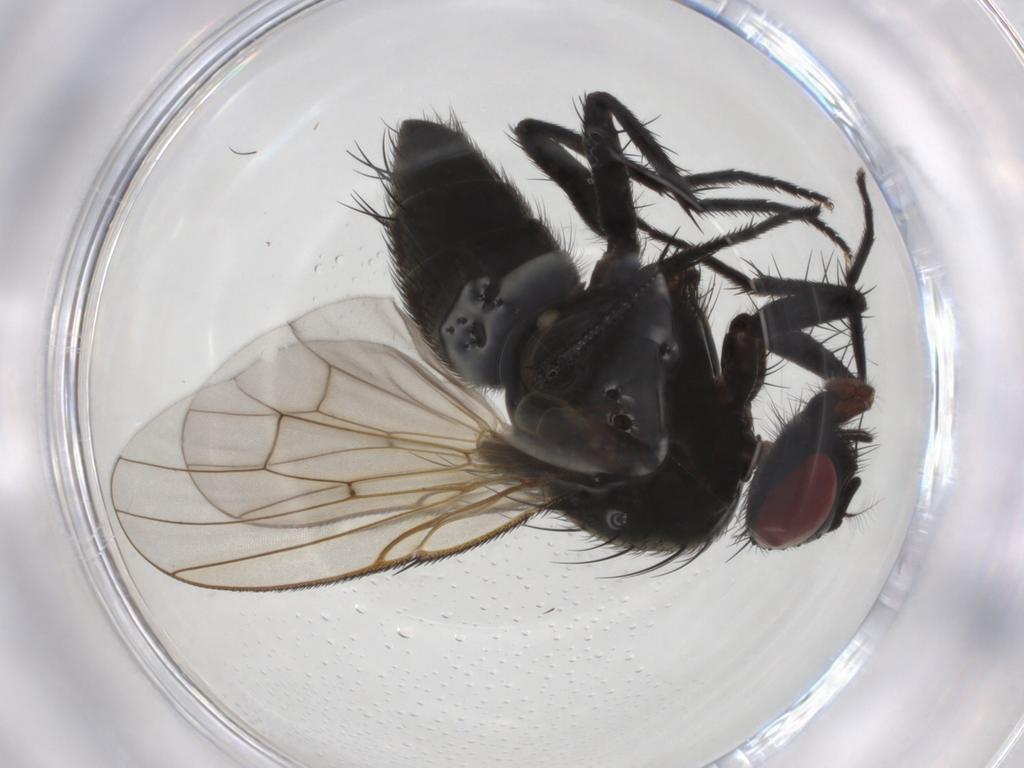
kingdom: Animalia
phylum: Arthropoda
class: Insecta
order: Diptera
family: Muscidae
